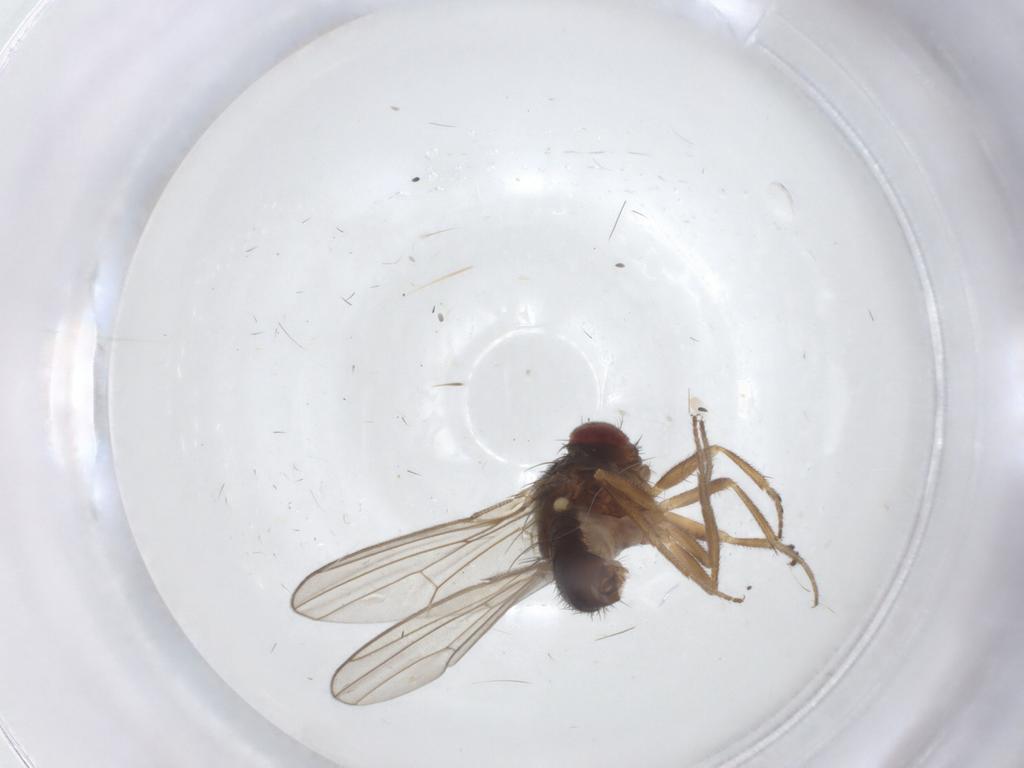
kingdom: Animalia
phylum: Arthropoda
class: Insecta
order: Diptera
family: Drosophilidae
